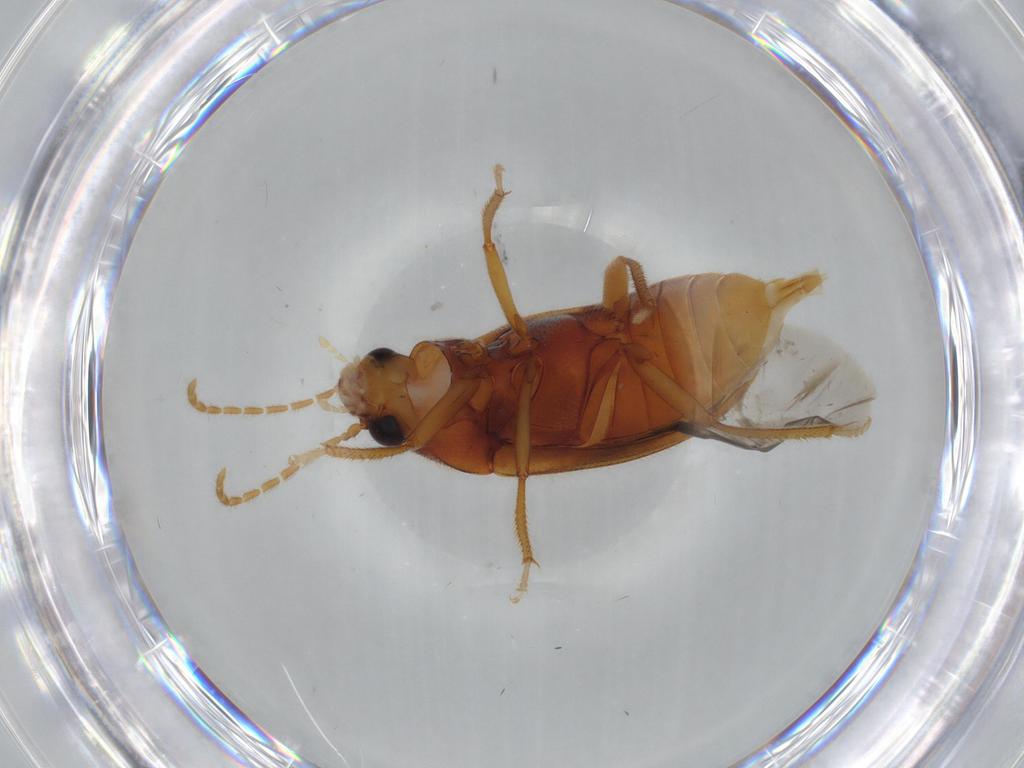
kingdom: Animalia
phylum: Arthropoda
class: Insecta
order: Coleoptera
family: Ptilodactylidae
